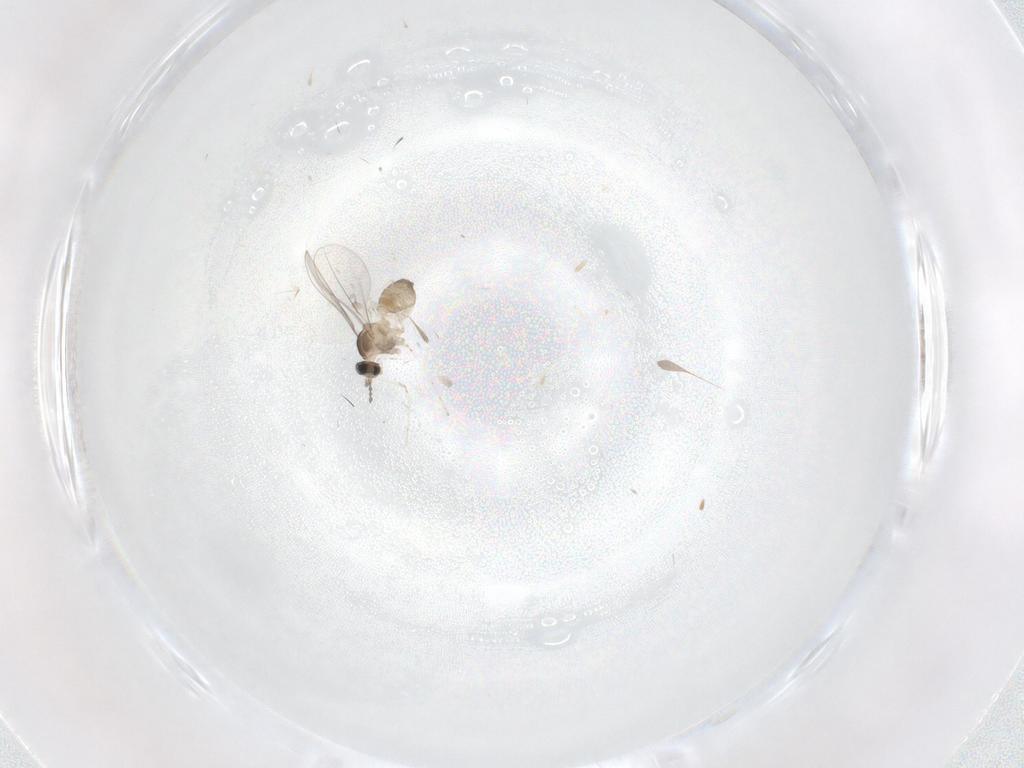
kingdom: Animalia
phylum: Arthropoda
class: Insecta
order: Diptera
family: Cecidomyiidae
